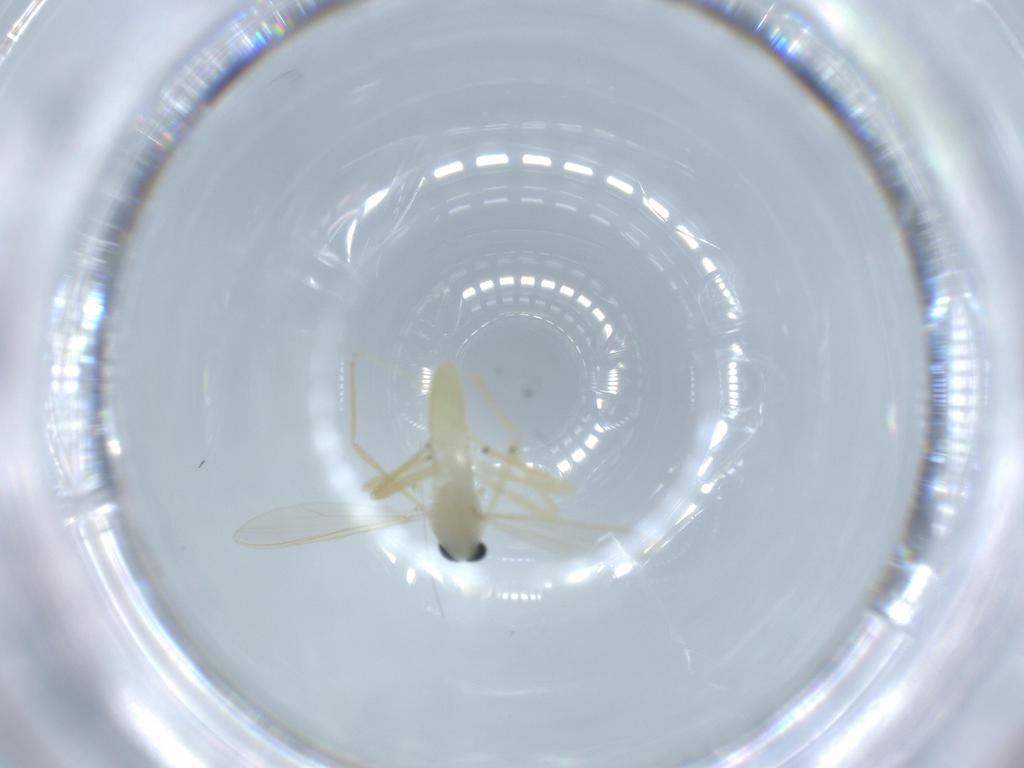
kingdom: Animalia
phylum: Arthropoda
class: Insecta
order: Diptera
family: Chironomidae
